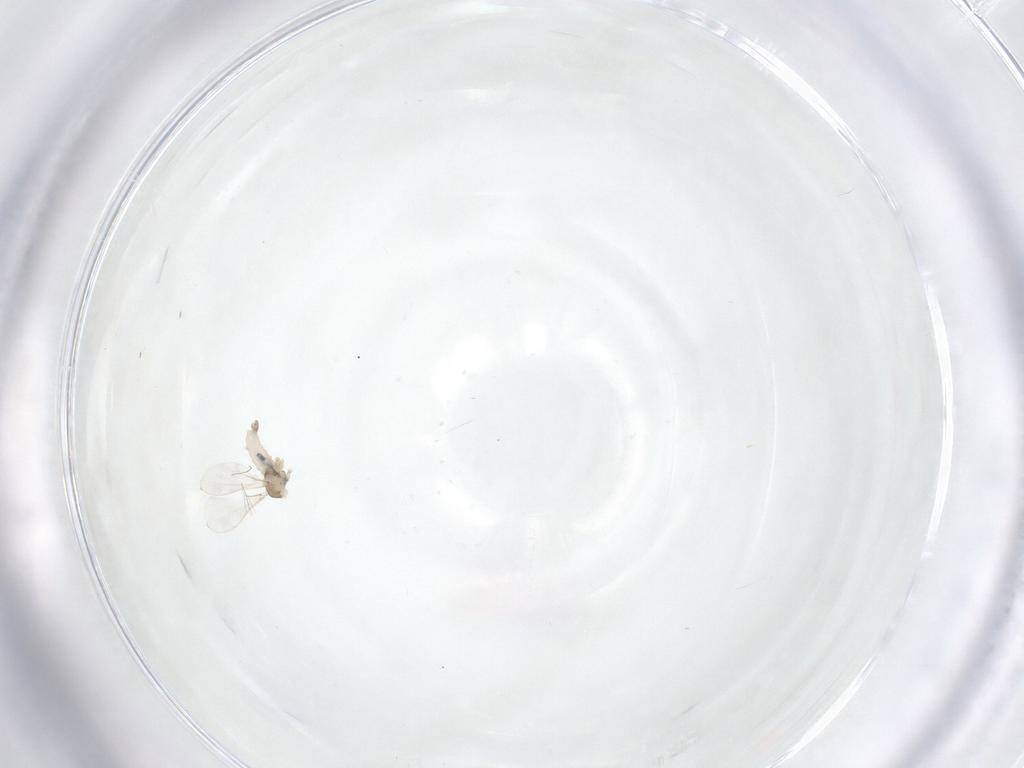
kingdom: Animalia
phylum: Arthropoda
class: Insecta
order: Diptera
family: Cecidomyiidae
